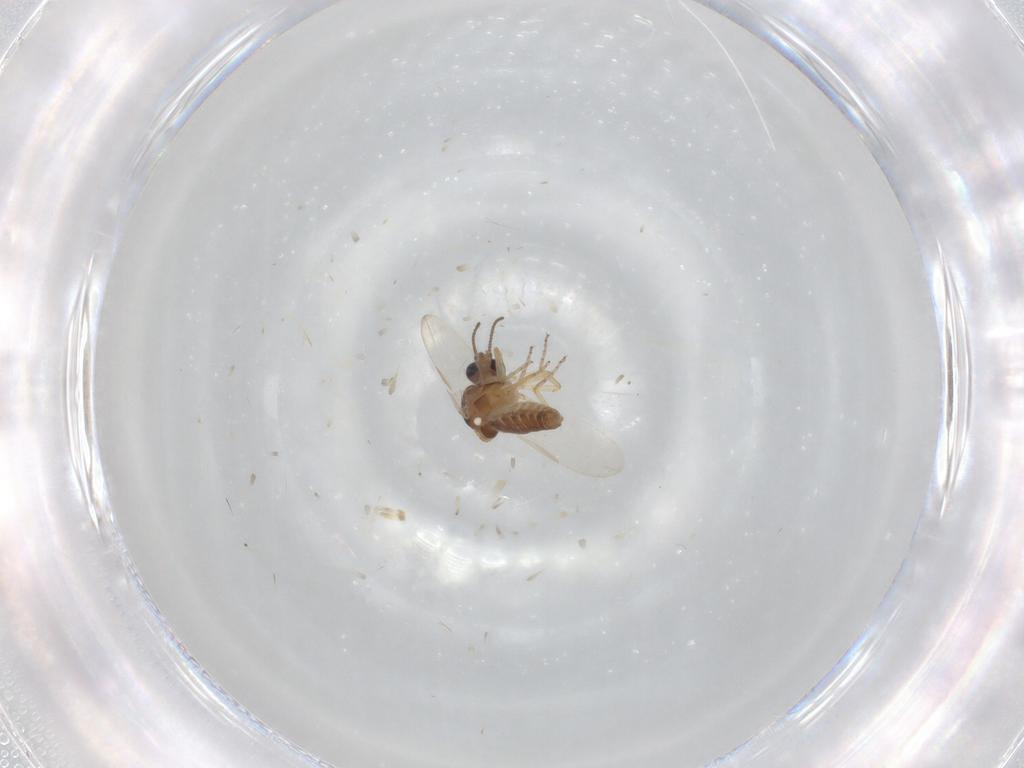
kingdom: Animalia
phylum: Arthropoda
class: Insecta
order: Diptera
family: Ceratopogonidae
